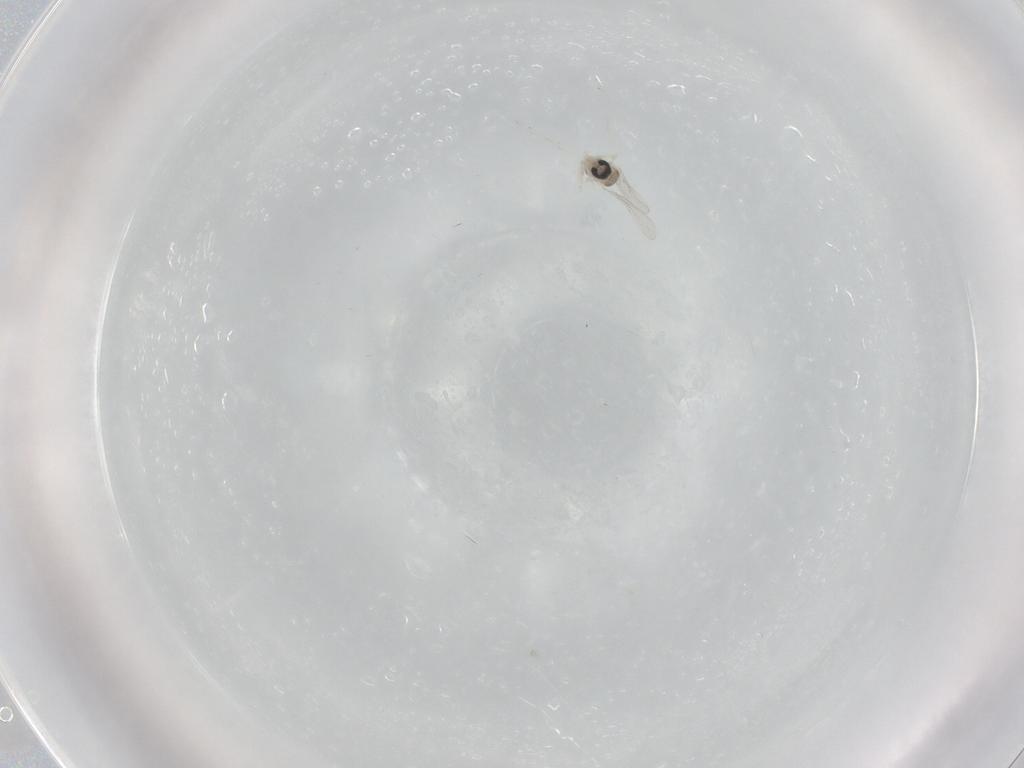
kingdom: Animalia
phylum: Arthropoda
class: Insecta
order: Diptera
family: Cecidomyiidae
